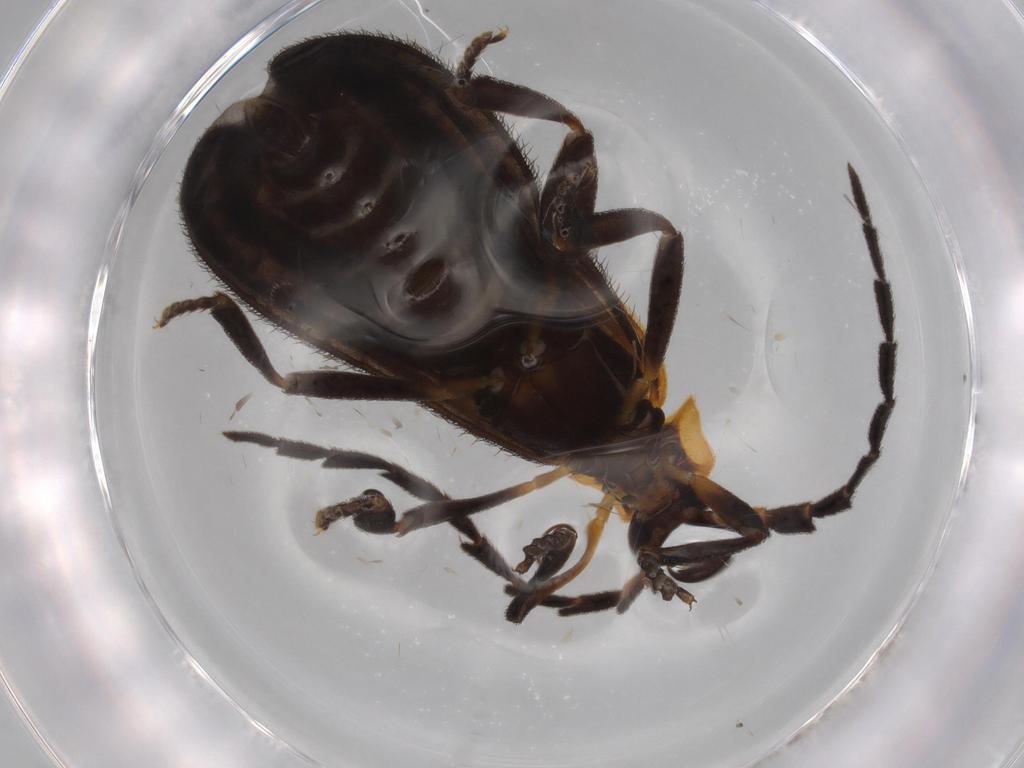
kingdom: Animalia
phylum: Arthropoda
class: Insecta
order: Coleoptera
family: Lycidae
